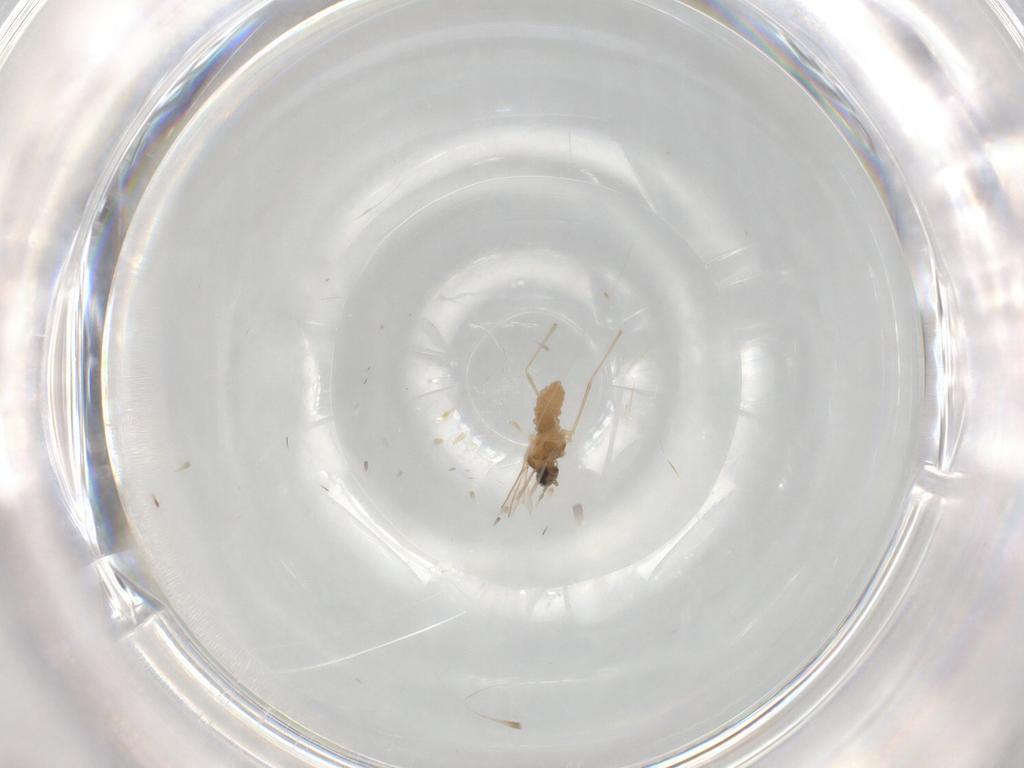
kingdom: Animalia
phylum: Arthropoda
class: Insecta
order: Diptera
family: Cecidomyiidae
